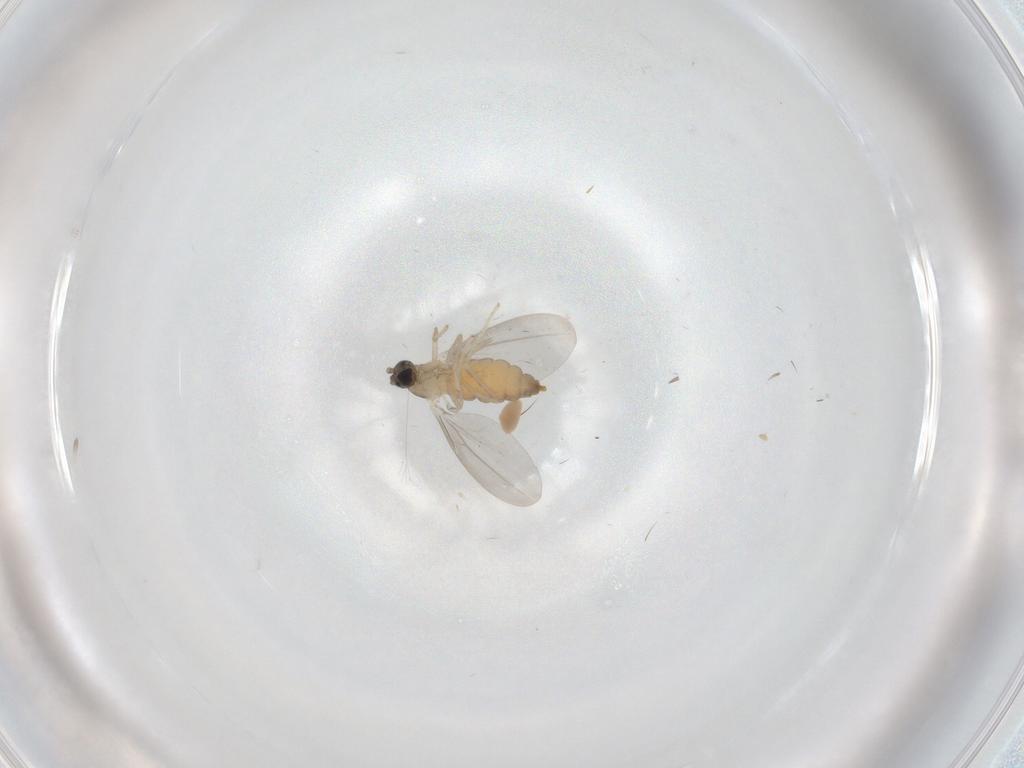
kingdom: Animalia
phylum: Arthropoda
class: Insecta
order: Diptera
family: Cecidomyiidae
